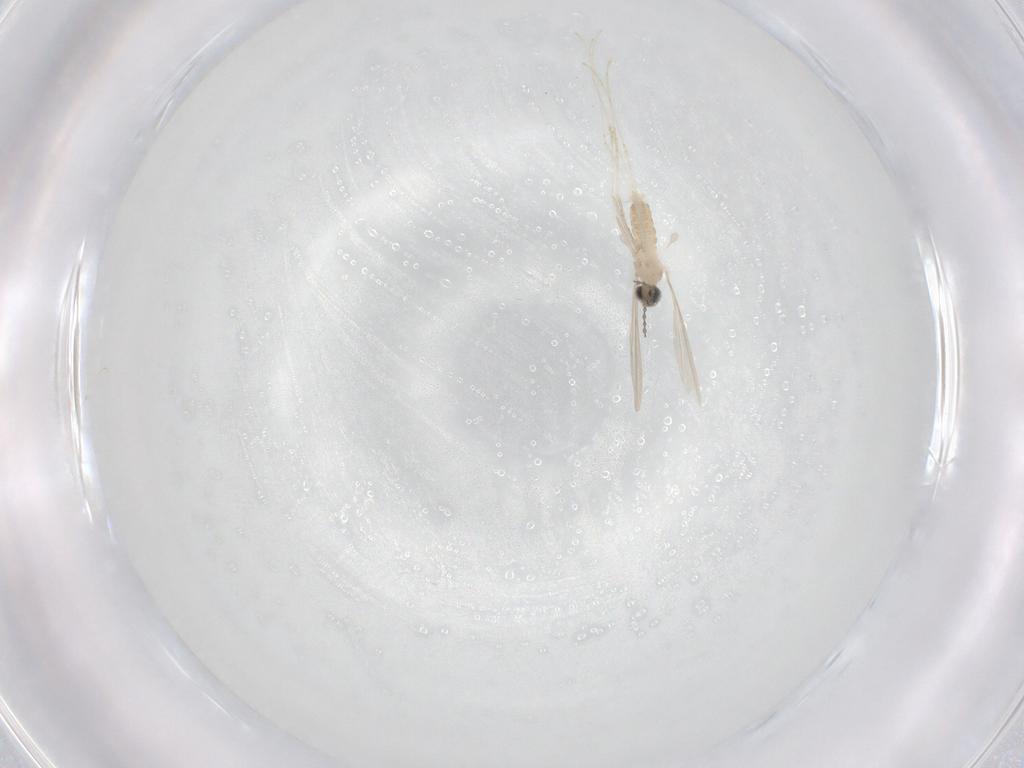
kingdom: Animalia
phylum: Arthropoda
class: Insecta
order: Diptera
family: Cecidomyiidae
